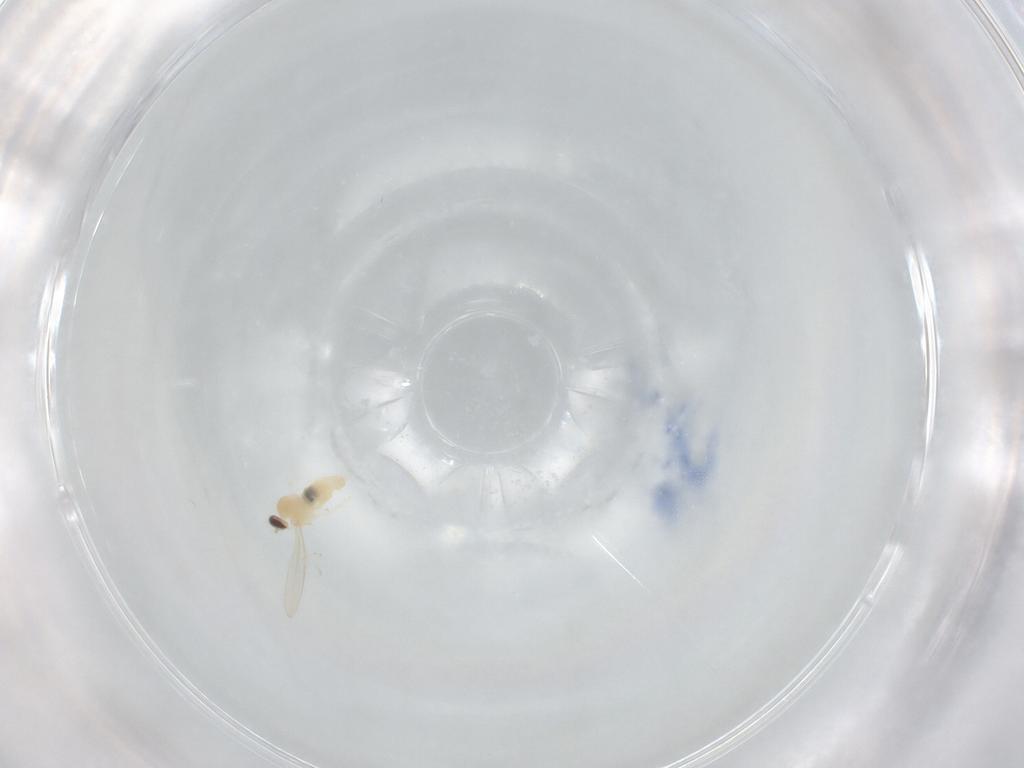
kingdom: Animalia
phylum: Arthropoda
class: Insecta
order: Diptera
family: Cecidomyiidae
